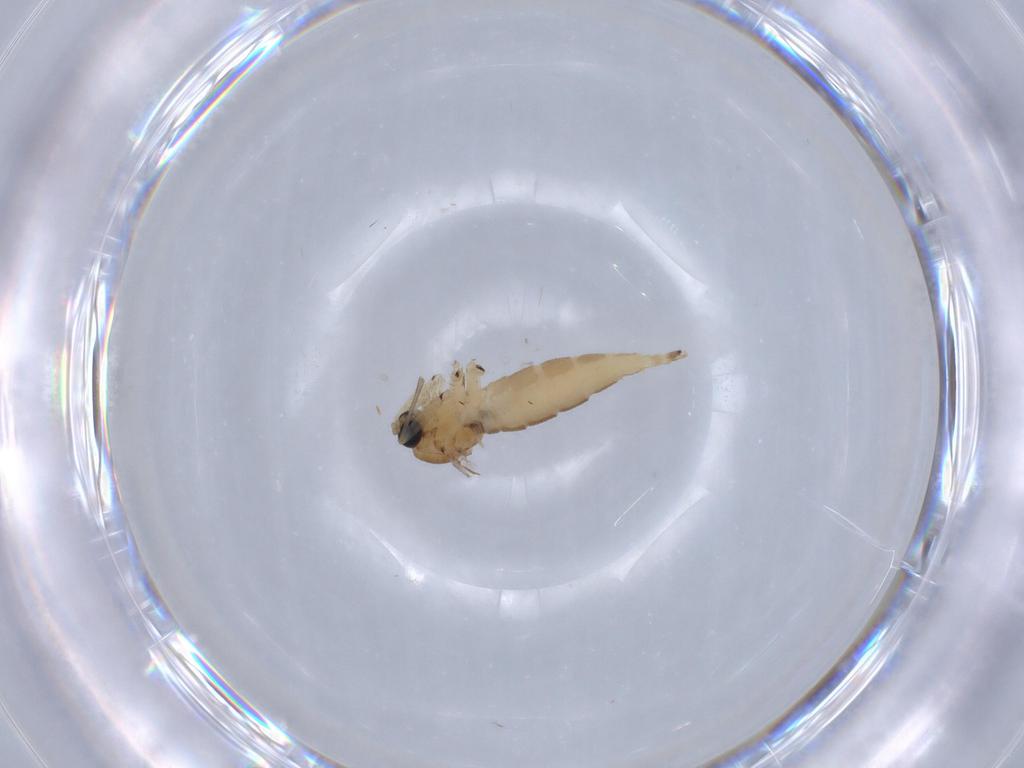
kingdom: Animalia
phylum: Arthropoda
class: Insecta
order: Diptera
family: Sciaridae
